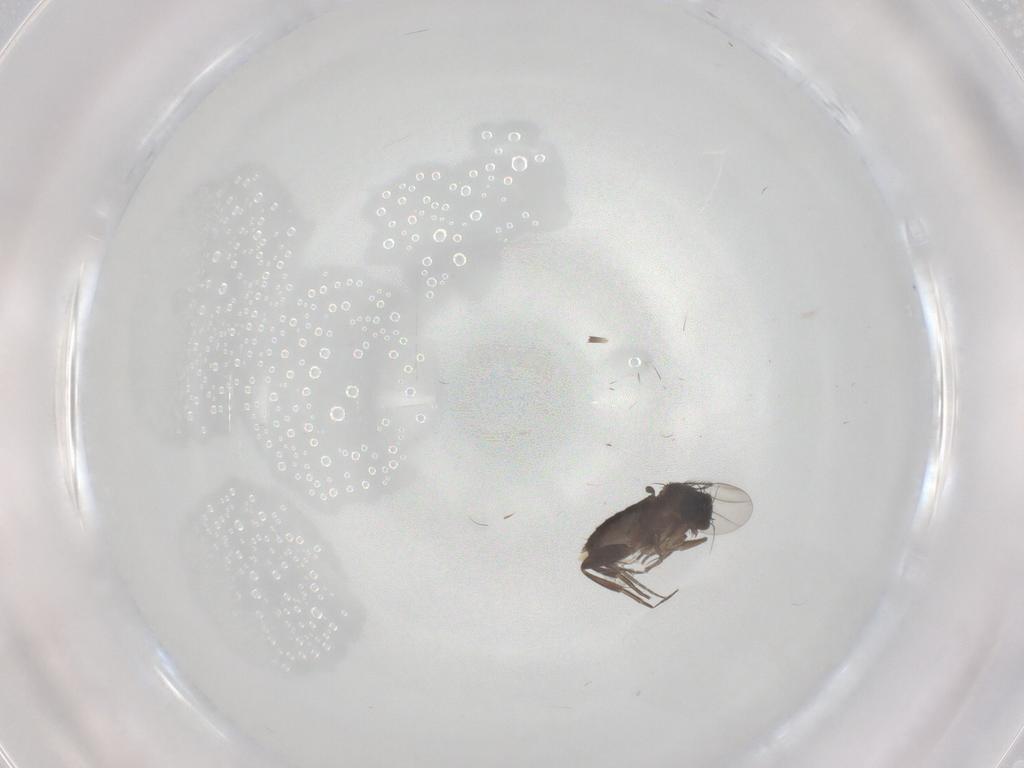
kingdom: Animalia
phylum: Arthropoda
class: Insecta
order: Diptera
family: Phoridae
